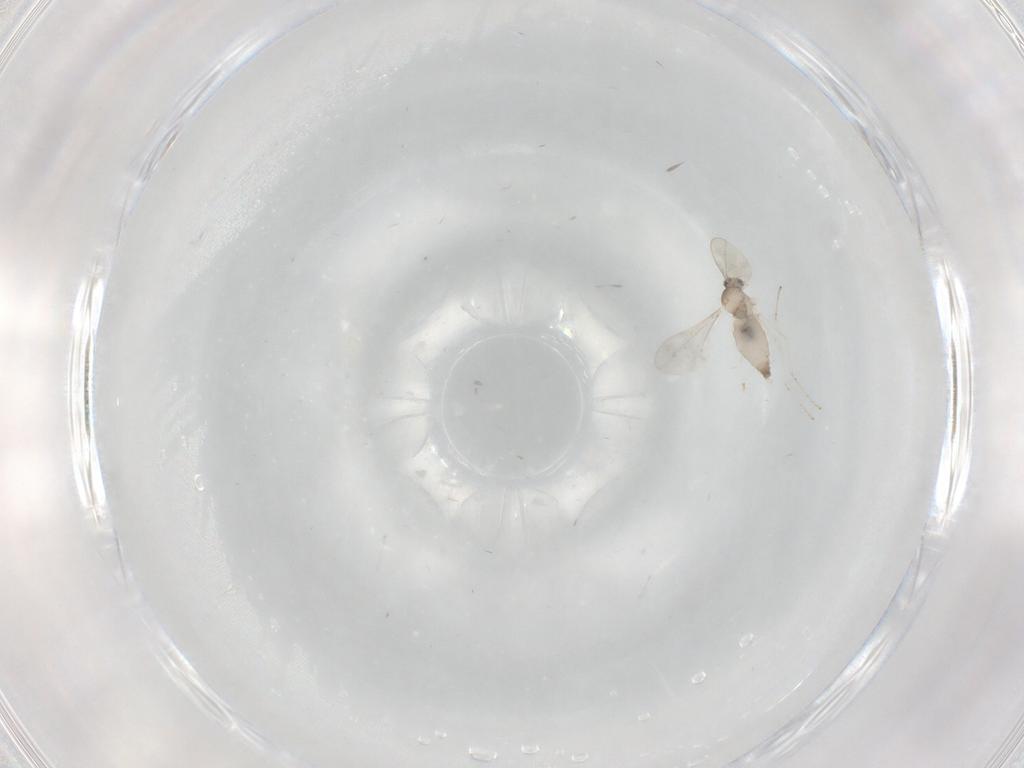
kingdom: Animalia
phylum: Arthropoda
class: Insecta
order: Diptera
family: Cecidomyiidae
